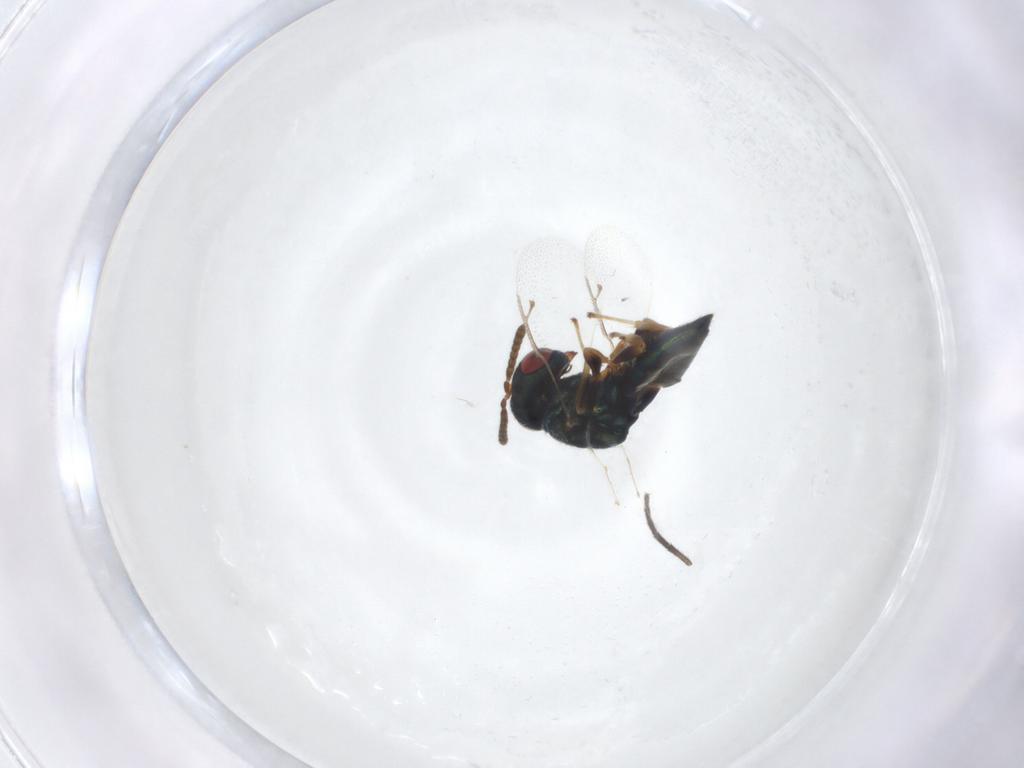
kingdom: Animalia
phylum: Arthropoda
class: Insecta
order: Hymenoptera
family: Pteromalidae
